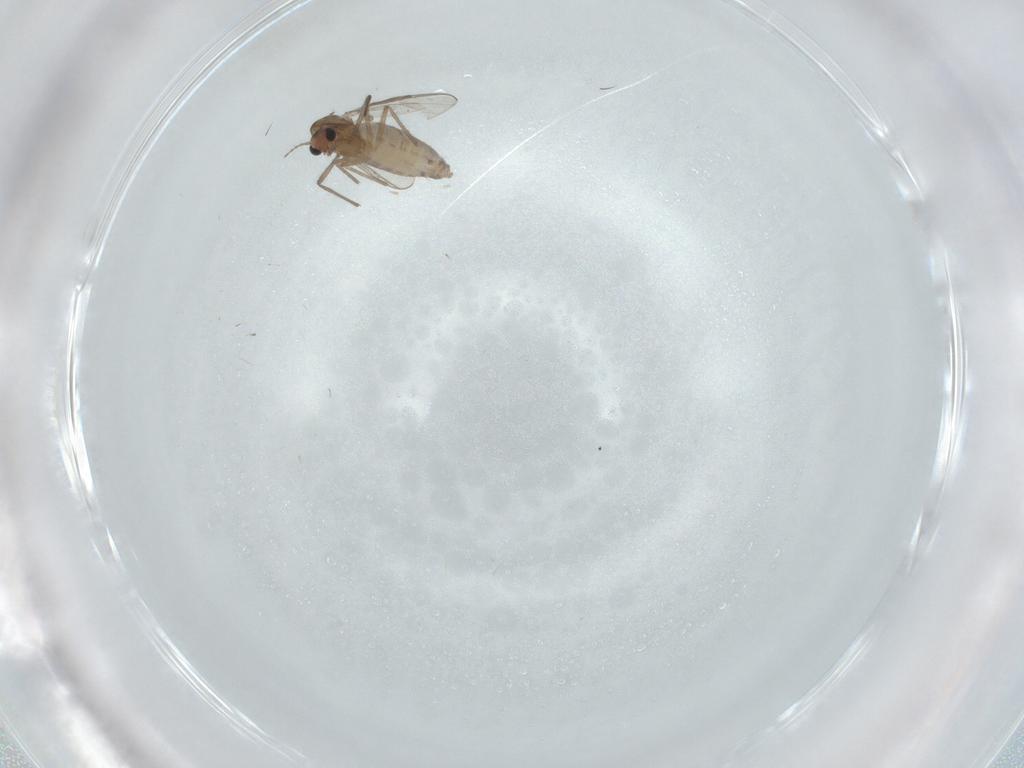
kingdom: Animalia
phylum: Arthropoda
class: Insecta
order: Diptera
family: Chironomidae
